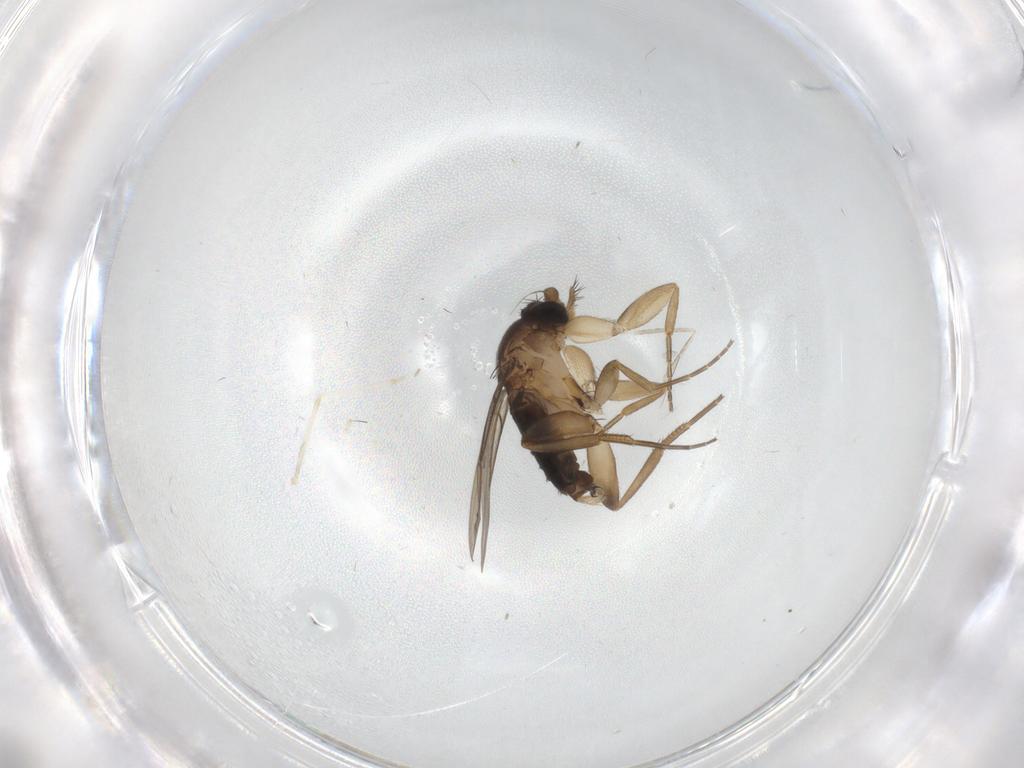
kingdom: Animalia
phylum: Arthropoda
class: Insecta
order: Diptera
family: Phoridae
